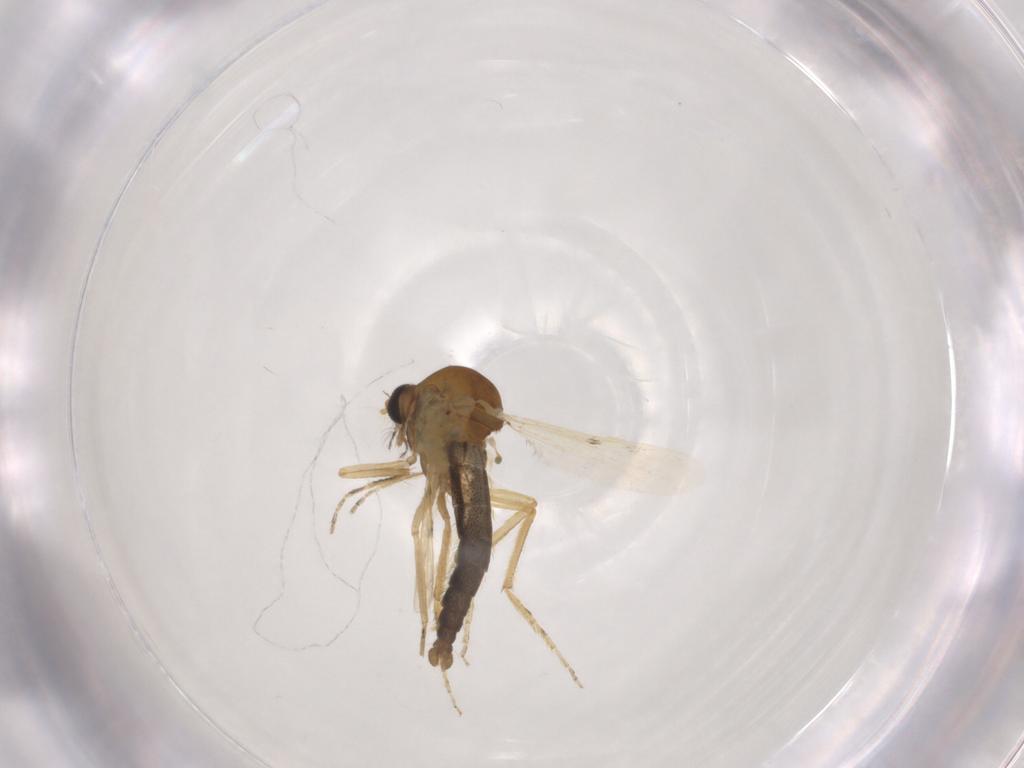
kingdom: Animalia
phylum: Arthropoda
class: Insecta
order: Diptera
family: Ceratopogonidae
